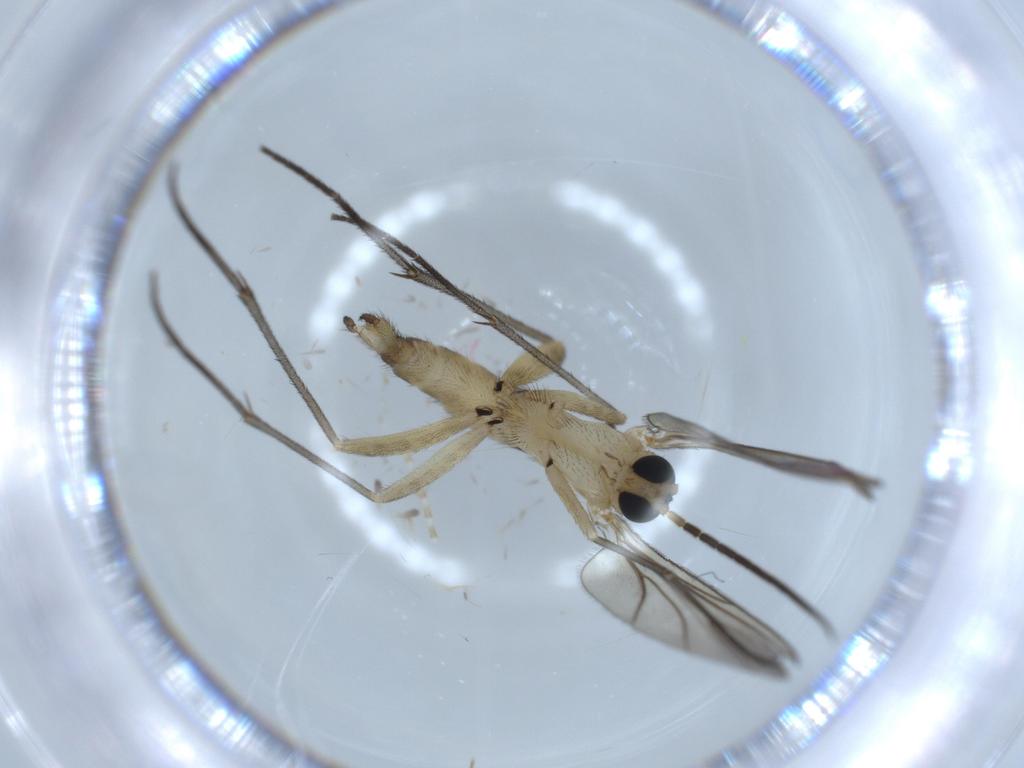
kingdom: Animalia
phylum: Arthropoda
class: Insecta
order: Diptera
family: Sciaridae
